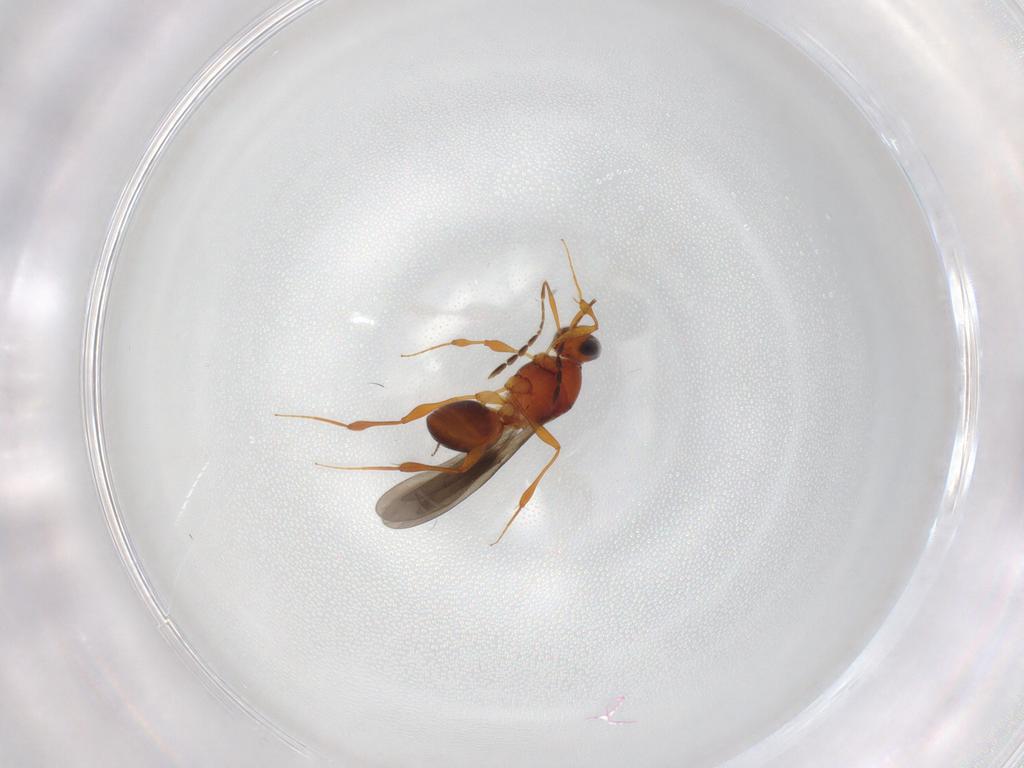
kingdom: Animalia
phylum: Arthropoda
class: Insecta
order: Hymenoptera
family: Platygastridae
